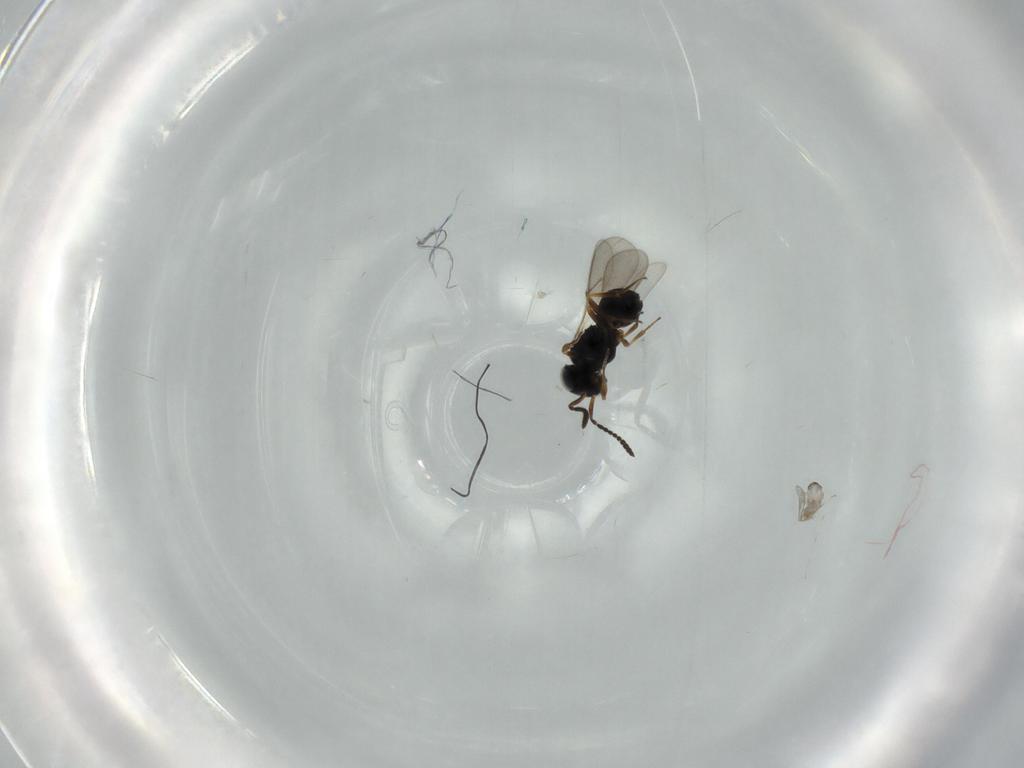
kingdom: Animalia
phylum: Arthropoda
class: Insecta
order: Hymenoptera
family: Scelionidae
